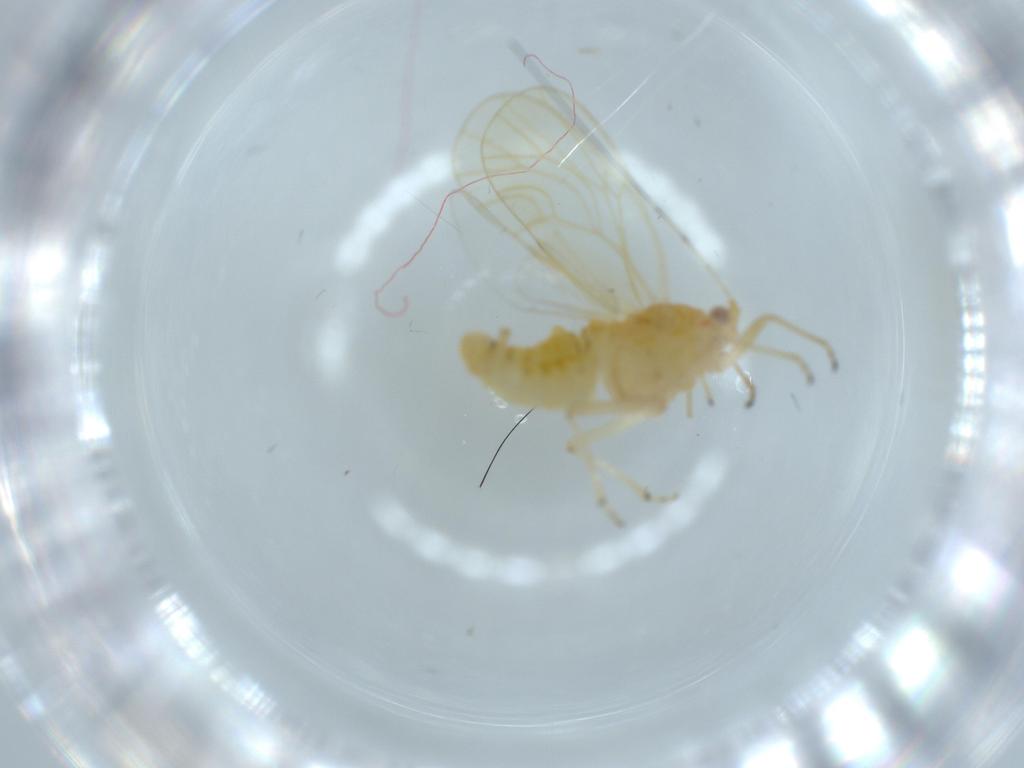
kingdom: Animalia
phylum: Arthropoda
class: Insecta
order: Hemiptera
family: Psyllidae
